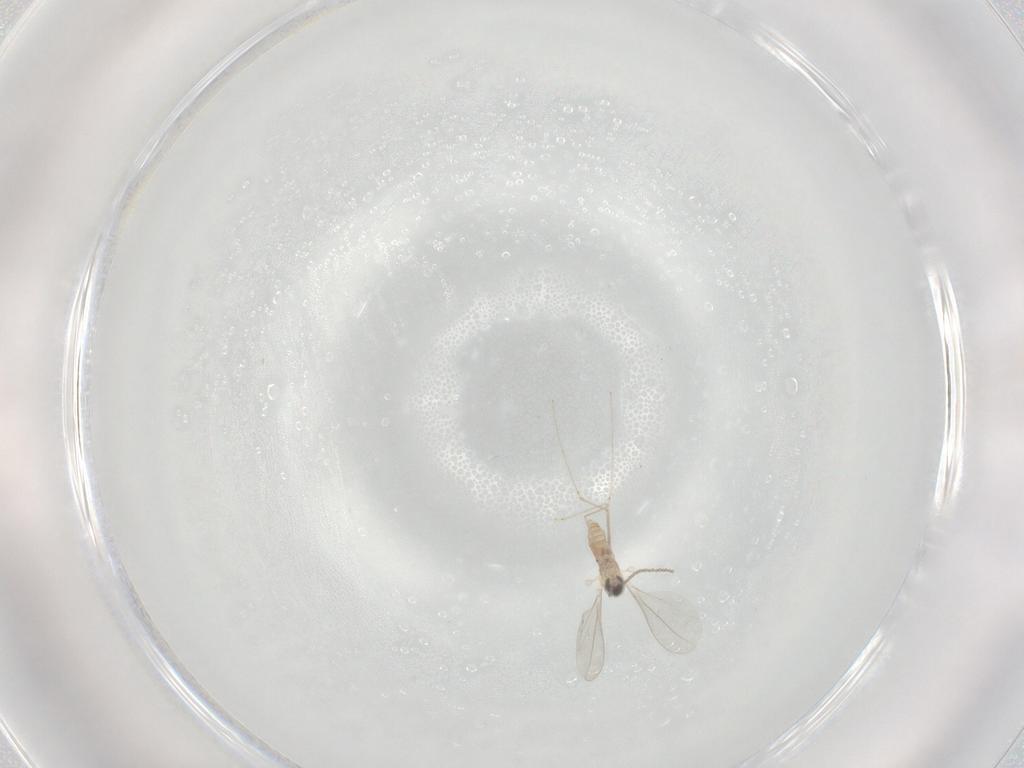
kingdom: Animalia
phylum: Arthropoda
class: Insecta
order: Diptera
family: Cecidomyiidae
